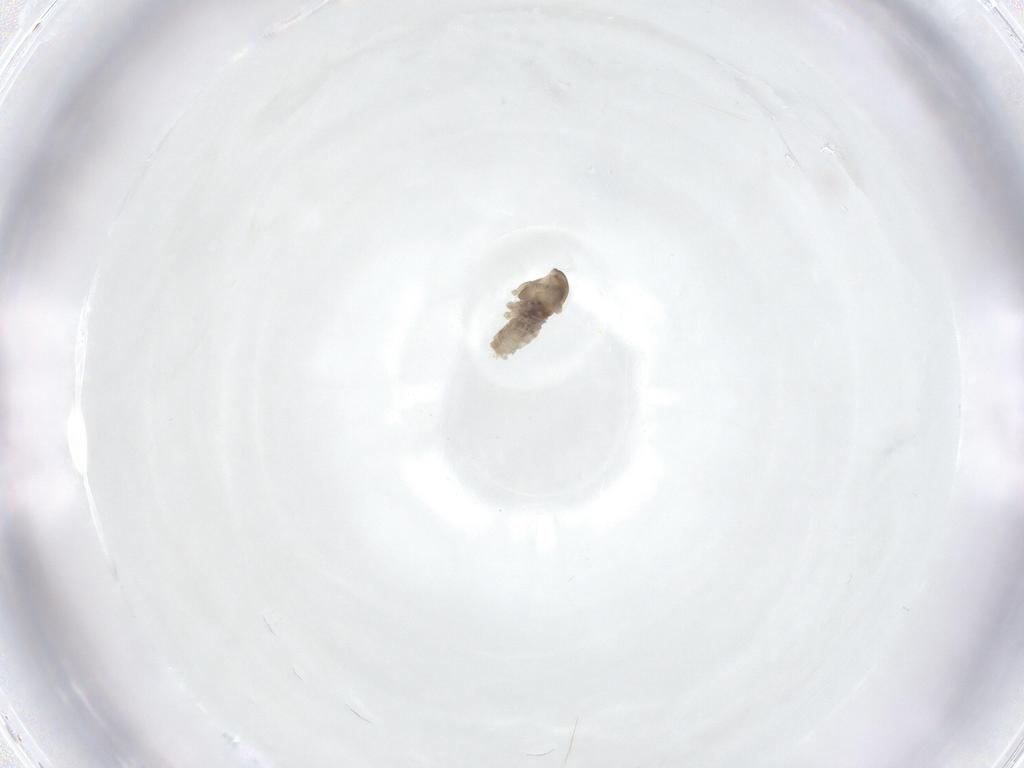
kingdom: Animalia
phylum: Arthropoda
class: Insecta
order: Diptera
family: Cecidomyiidae
